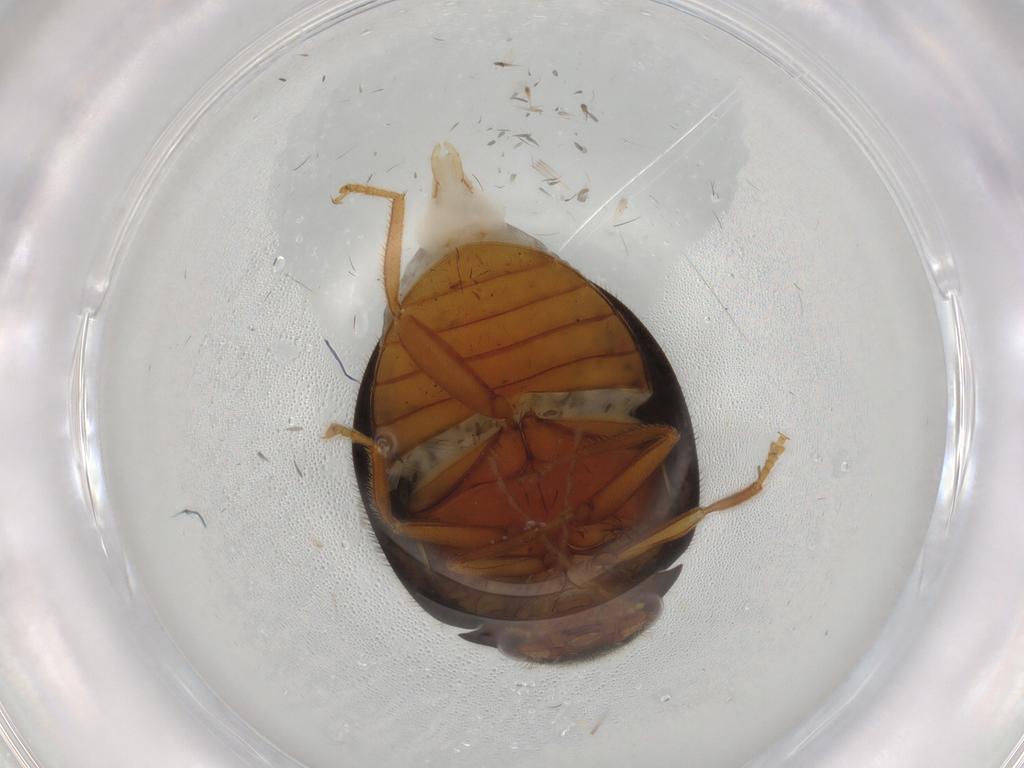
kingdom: Animalia
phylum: Arthropoda
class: Insecta
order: Coleoptera
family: Scirtidae
